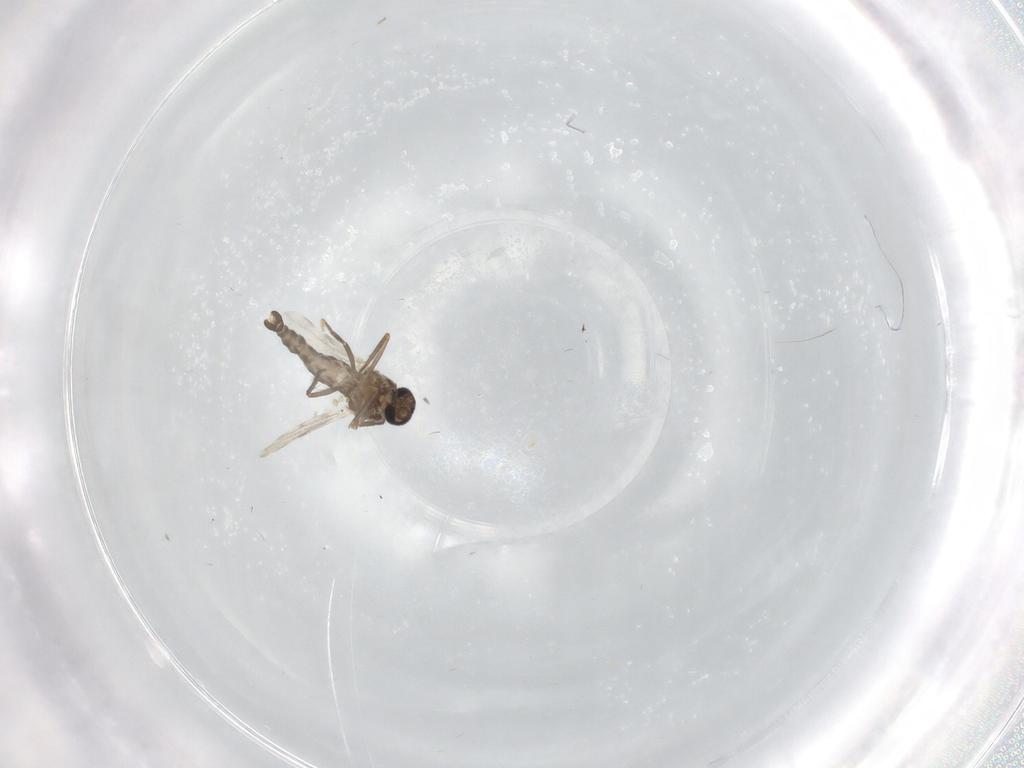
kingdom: Animalia
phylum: Arthropoda
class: Insecta
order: Diptera
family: Ceratopogonidae
